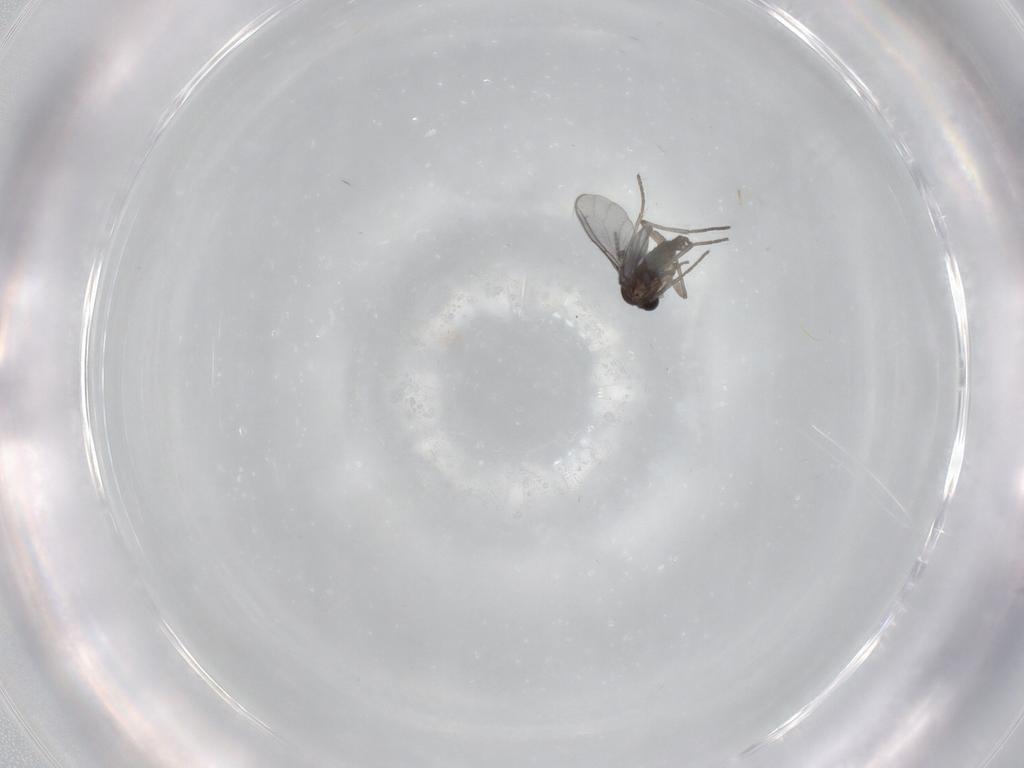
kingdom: Animalia
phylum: Arthropoda
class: Insecta
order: Diptera
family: Sciaridae
